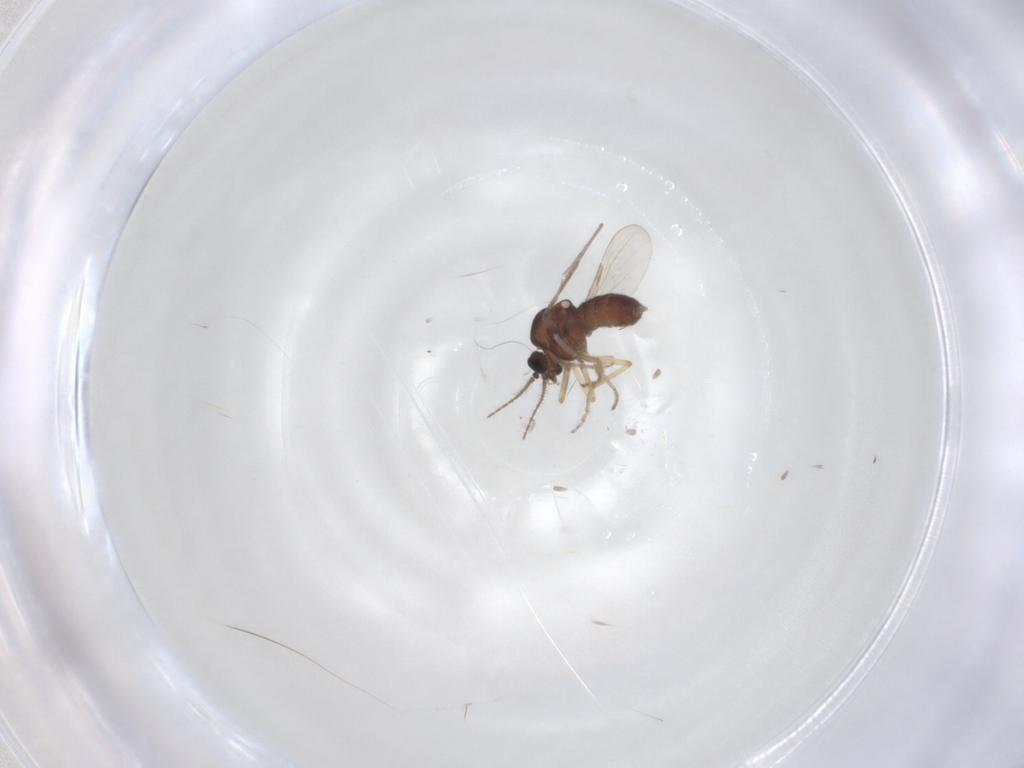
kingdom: Animalia
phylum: Arthropoda
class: Insecta
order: Diptera
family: Ceratopogonidae
